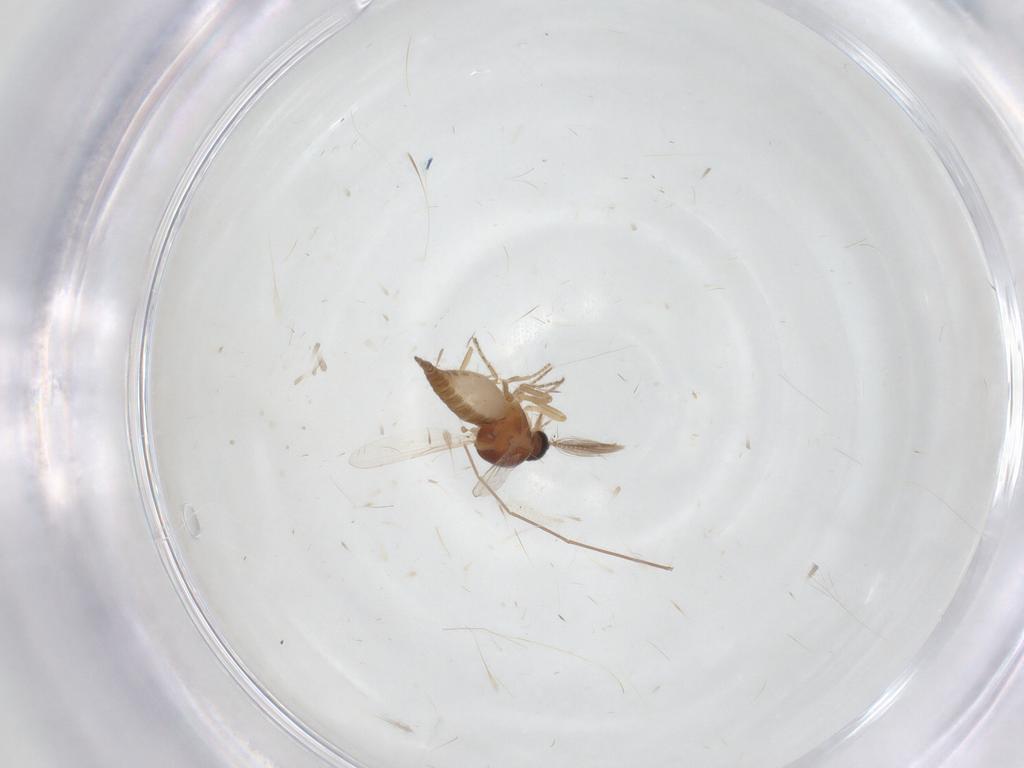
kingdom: Animalia
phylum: Arthropoda
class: Insecta
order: Diptera
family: Ceratopogonidae
